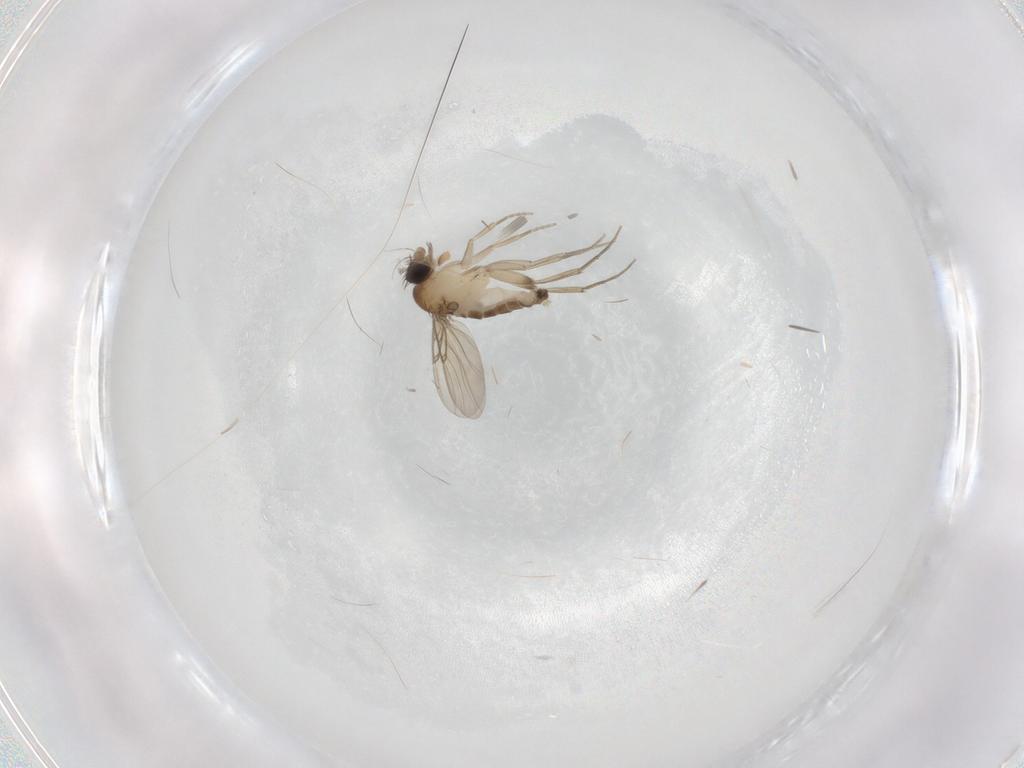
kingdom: Animalia
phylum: Arthropoda
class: Insecta
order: Diptera
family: Phoridae
